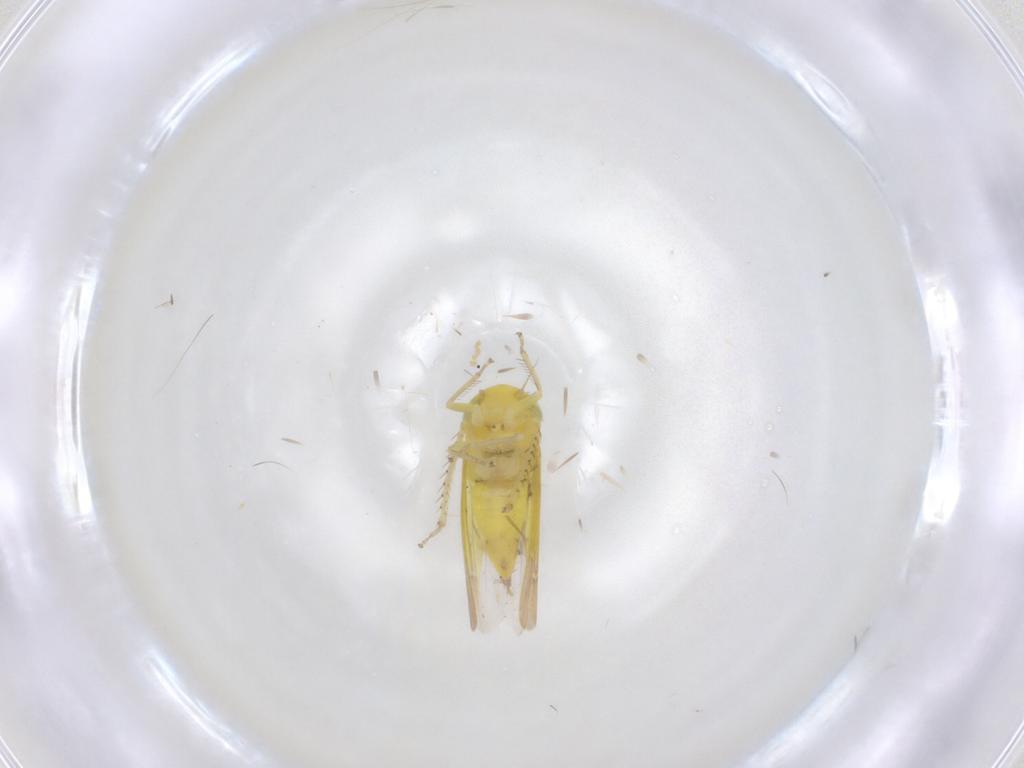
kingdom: Animalia
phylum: Arthropoda
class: Insecta
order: Hemiptera
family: Cicadellidae
